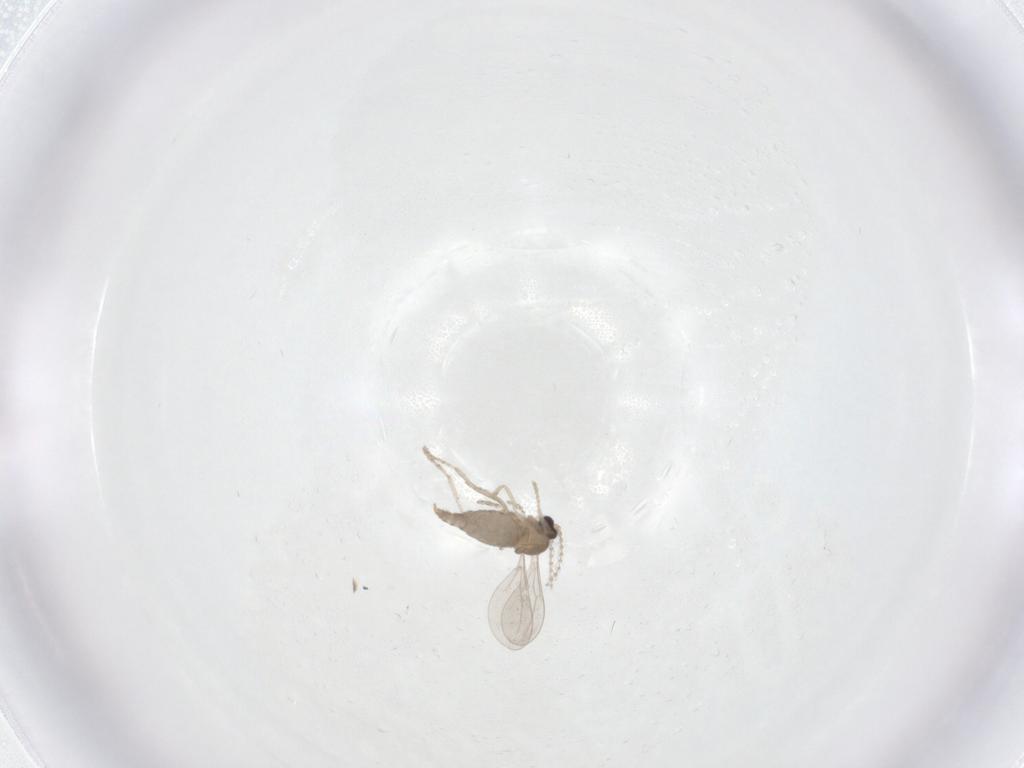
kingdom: Animalia
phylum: Arthropoda
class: Insecta
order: Diptera
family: Cecidomyiidae
